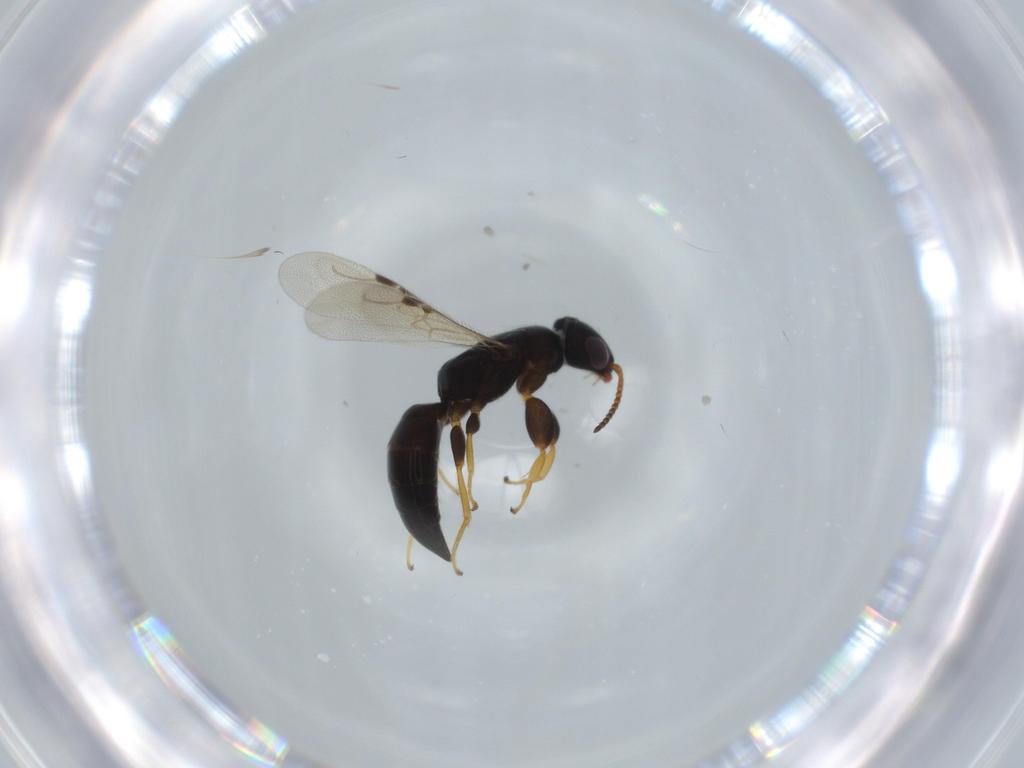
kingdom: Animalia
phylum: Arthropoda
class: Insecta
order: Hymenoptera
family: Bethylidae
